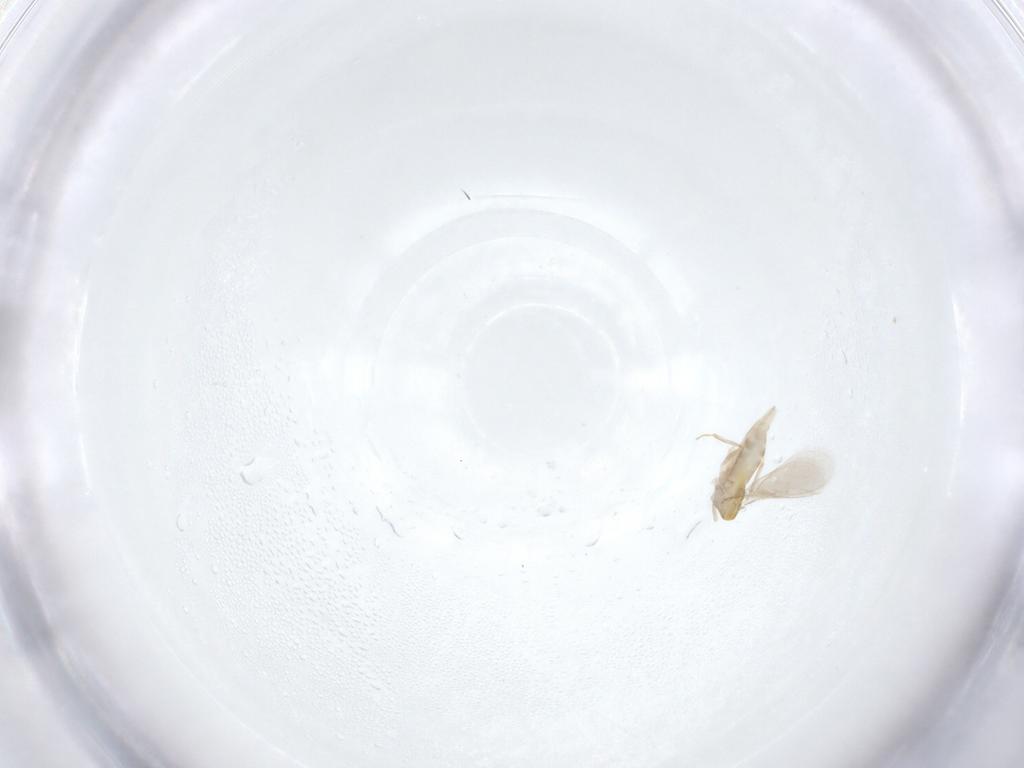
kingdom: Animalia
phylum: Arthropoda
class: Insecta
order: Hymenoptera
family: Aphelinidae
